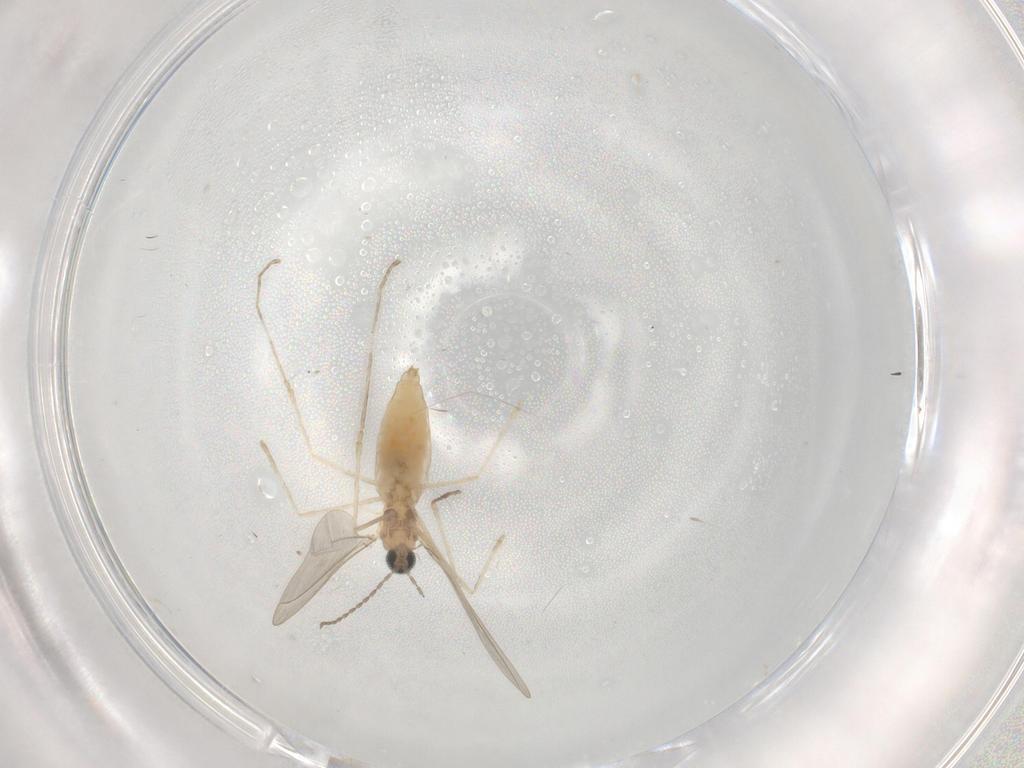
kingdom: Animalia
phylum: Arthropoda
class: Insecta
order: Diptera
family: Cecidomyiidae
